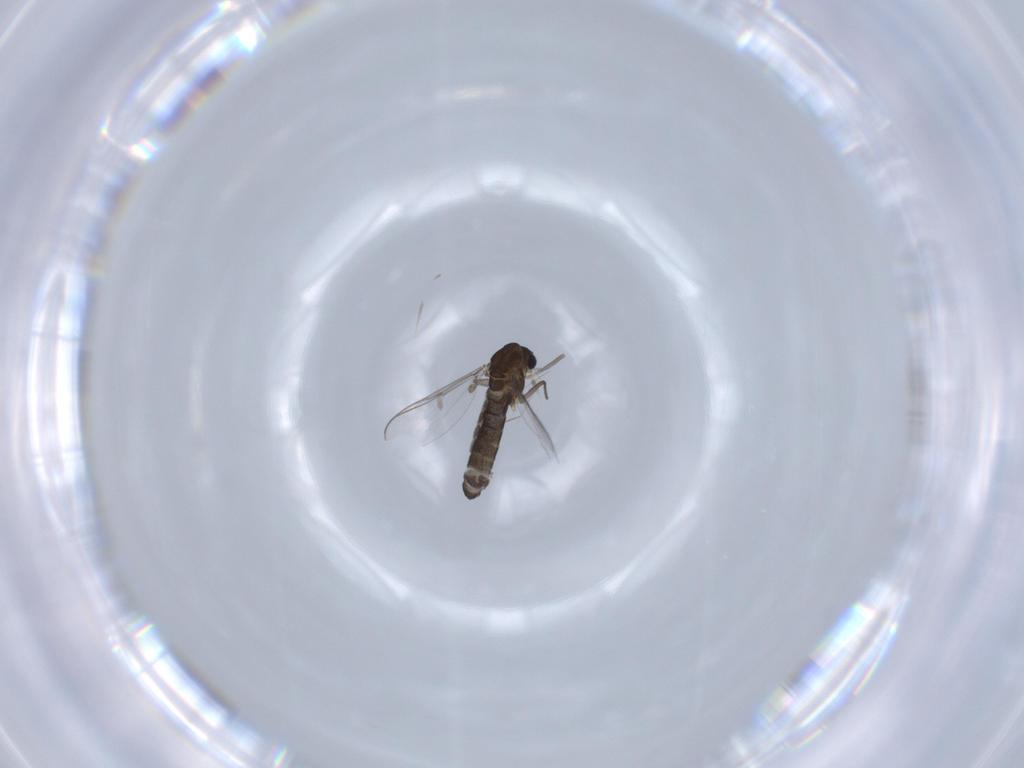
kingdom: Animalia
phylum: Arthropoda
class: Insecta
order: Diptera
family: Chironomidae
